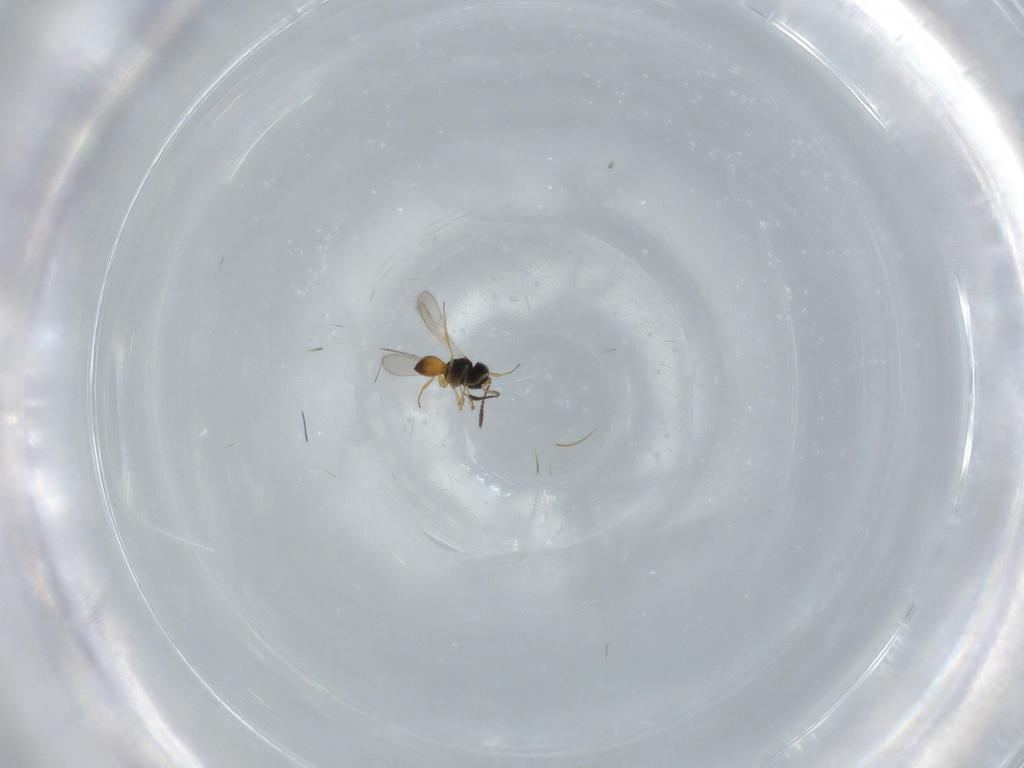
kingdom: Animalia
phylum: Arthropoda
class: Insecta
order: Hymenoptera
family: Scelionidae
